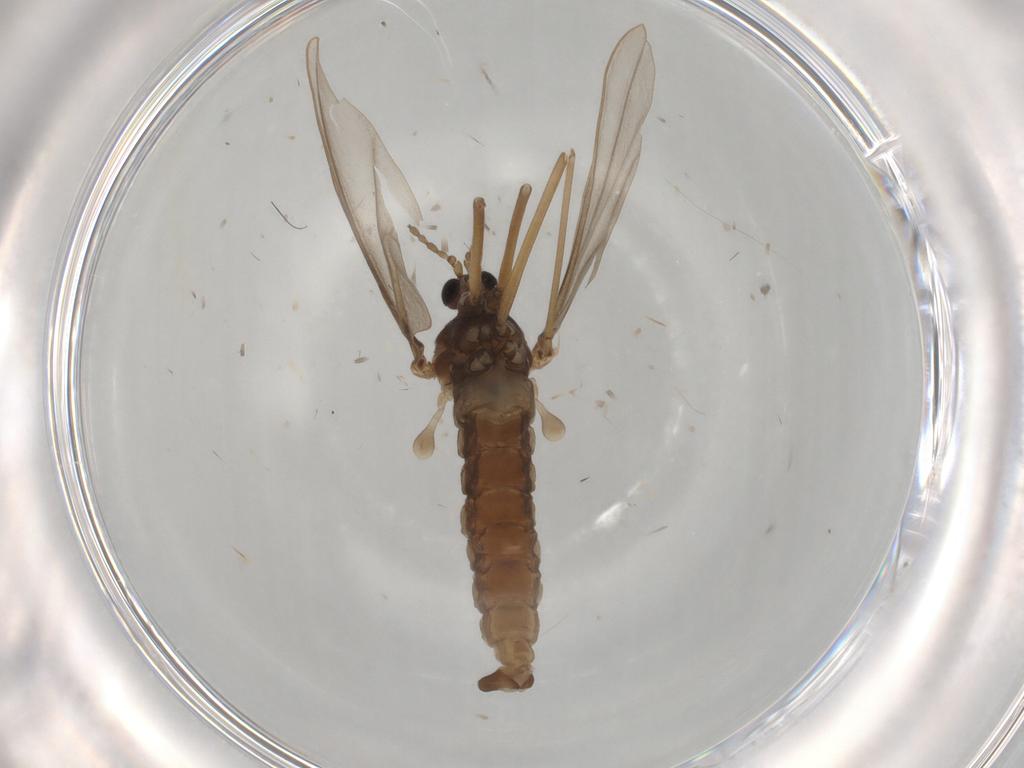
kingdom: Animalia
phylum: Arthropoda
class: Insecta
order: Diptera
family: Cecidomyiidae
